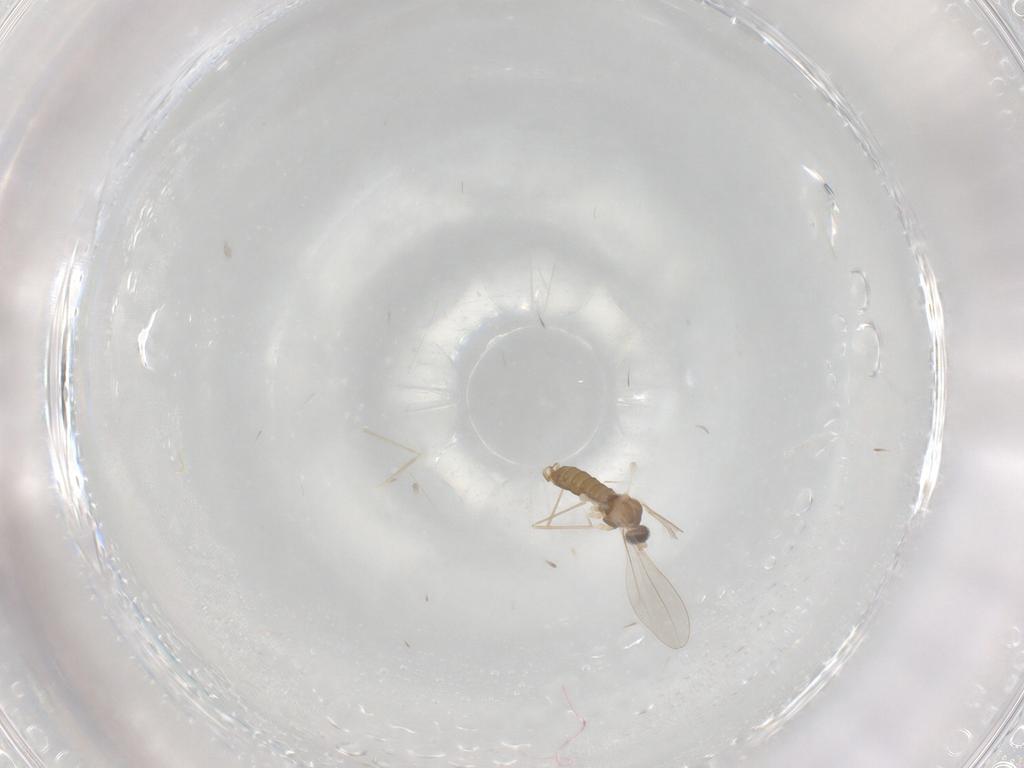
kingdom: Animalia
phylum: Arthropoda
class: Insecta
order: Diptera
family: Cecidomyiidae
